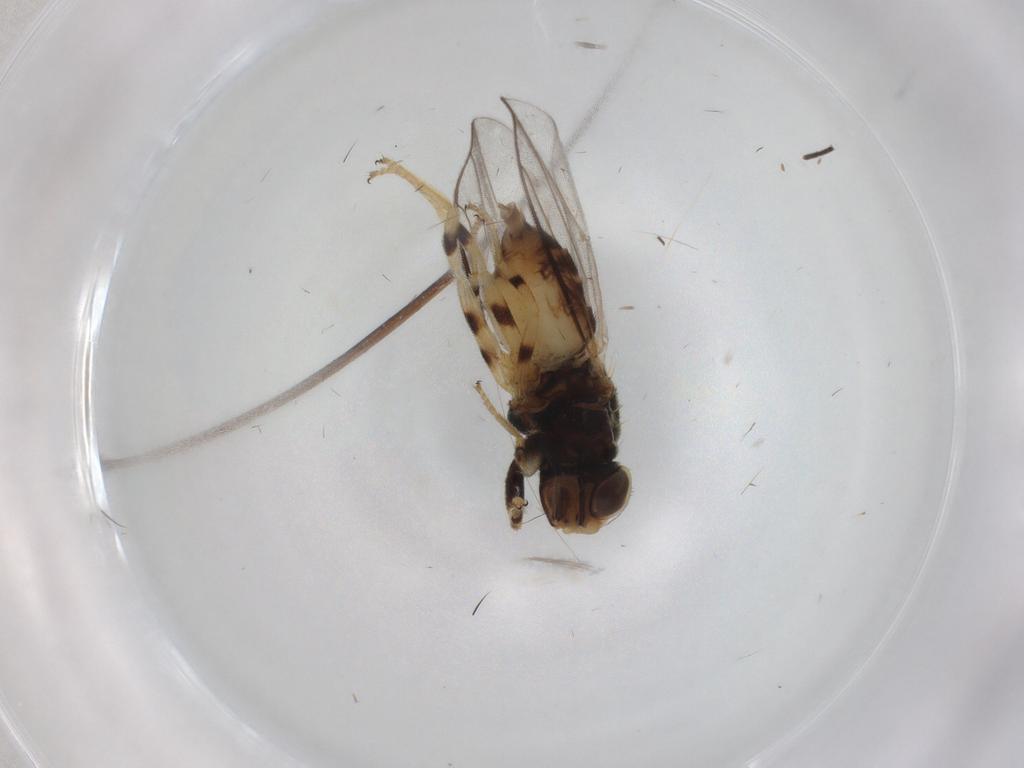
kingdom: Animalia
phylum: Arthropoda
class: Insecta
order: Diptera
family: Chloropidae
